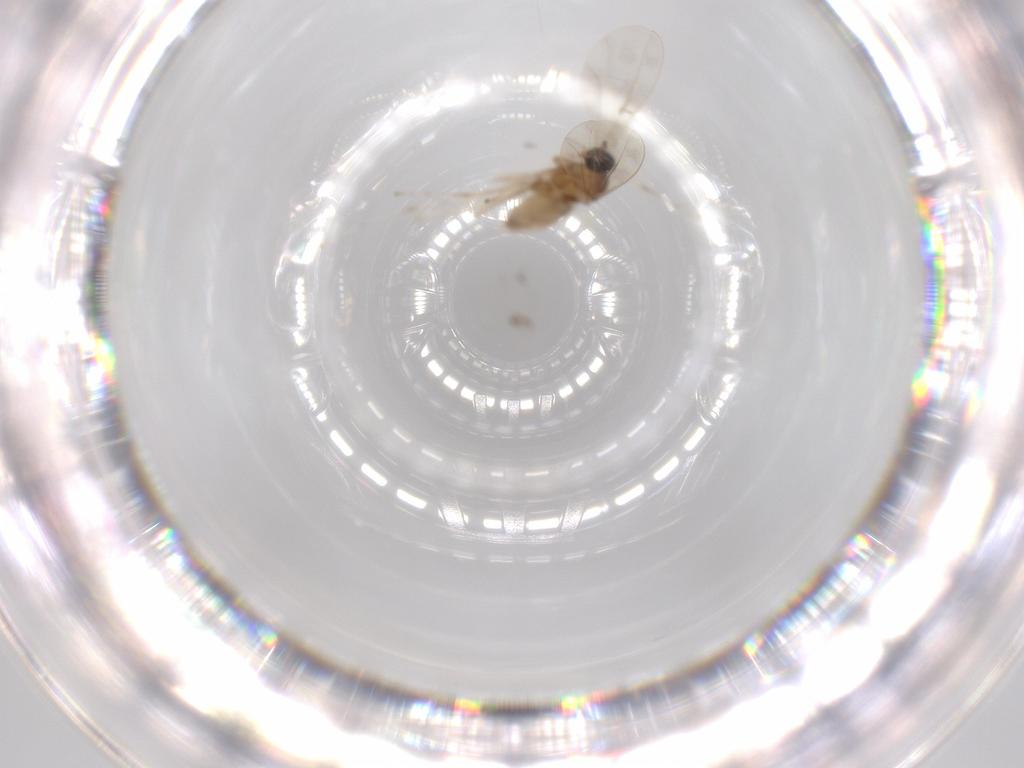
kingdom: Animalia
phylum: Arthropoda
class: Insecta
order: Diptera
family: Cecidomyiidae
